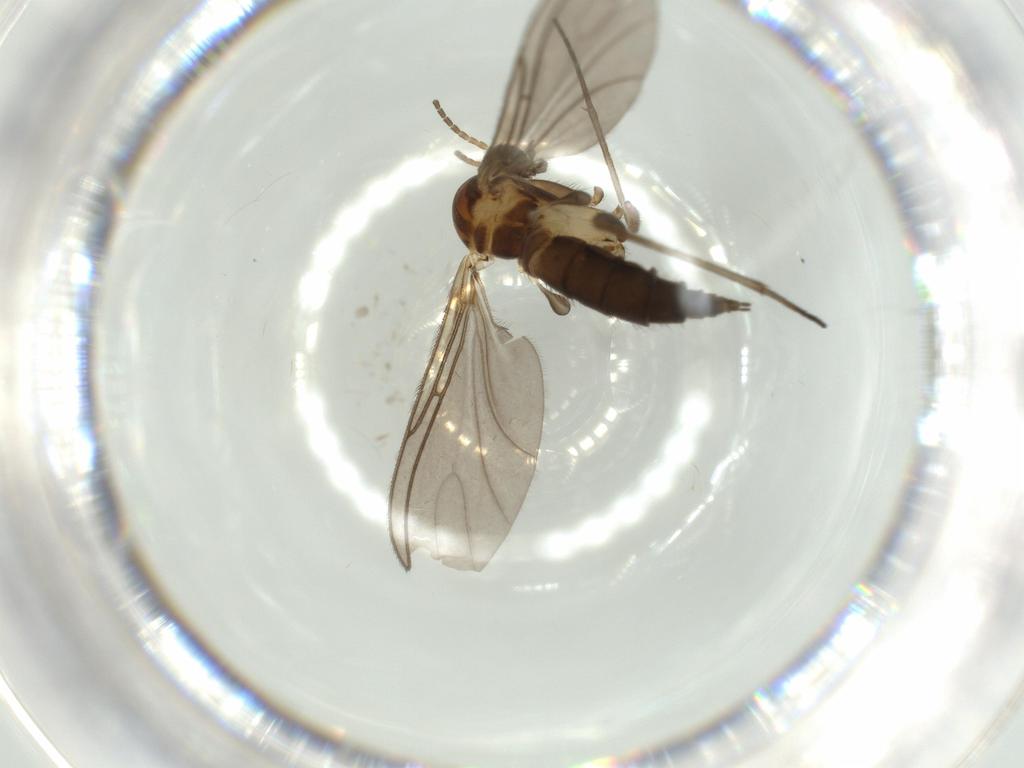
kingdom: Animalia
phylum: Arthropoda
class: Insecta
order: Diptera
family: Sciaridae
